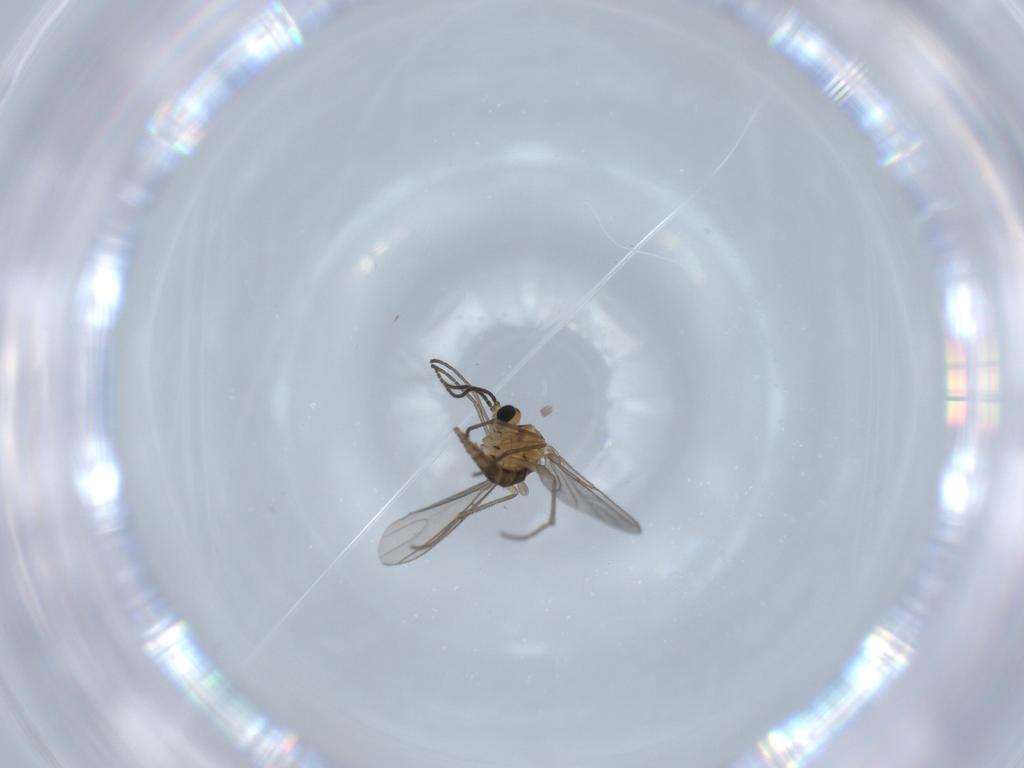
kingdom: Animalia
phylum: Arthropoda
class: Insecta
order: Diptera
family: Sciaridae
